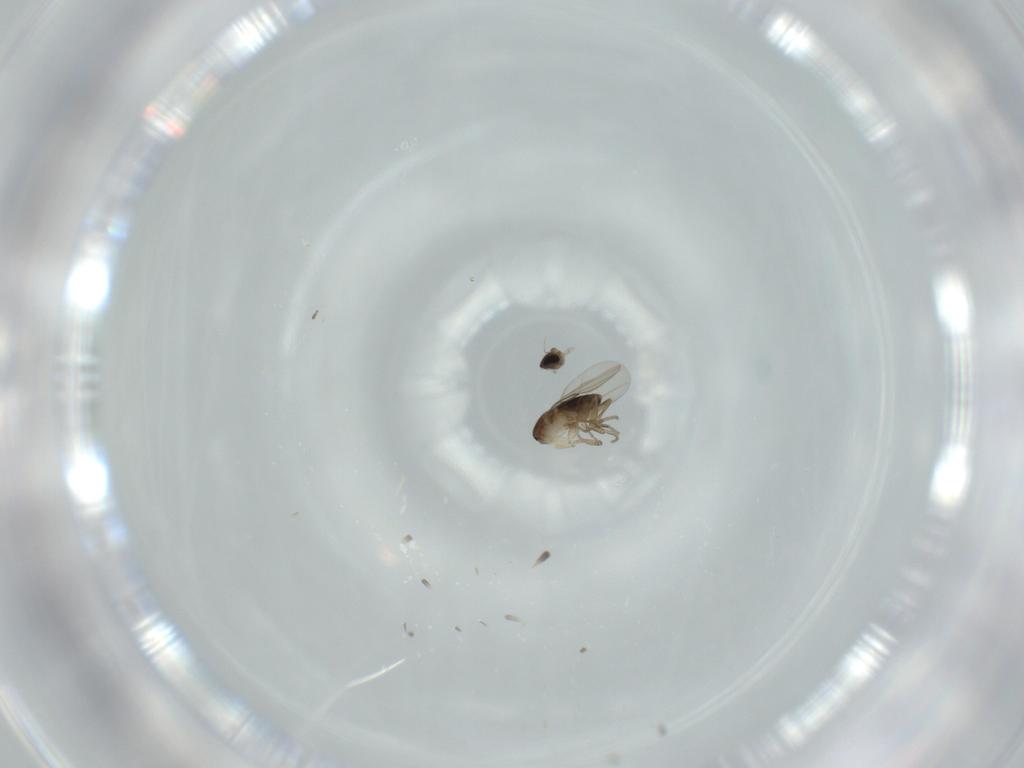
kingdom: Animalia
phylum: Arthropoda
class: Insecta
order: Diptera
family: Phoridae
